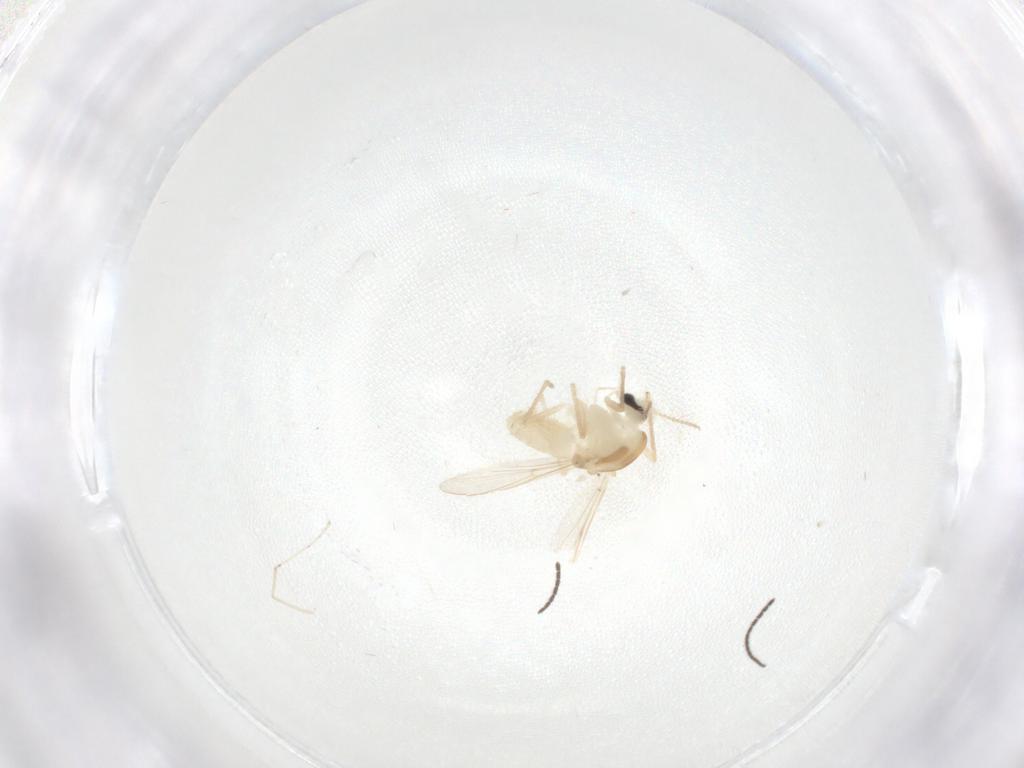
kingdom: Animalia
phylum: Arthropoda
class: Insecta
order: Diptera
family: Chironomidae
